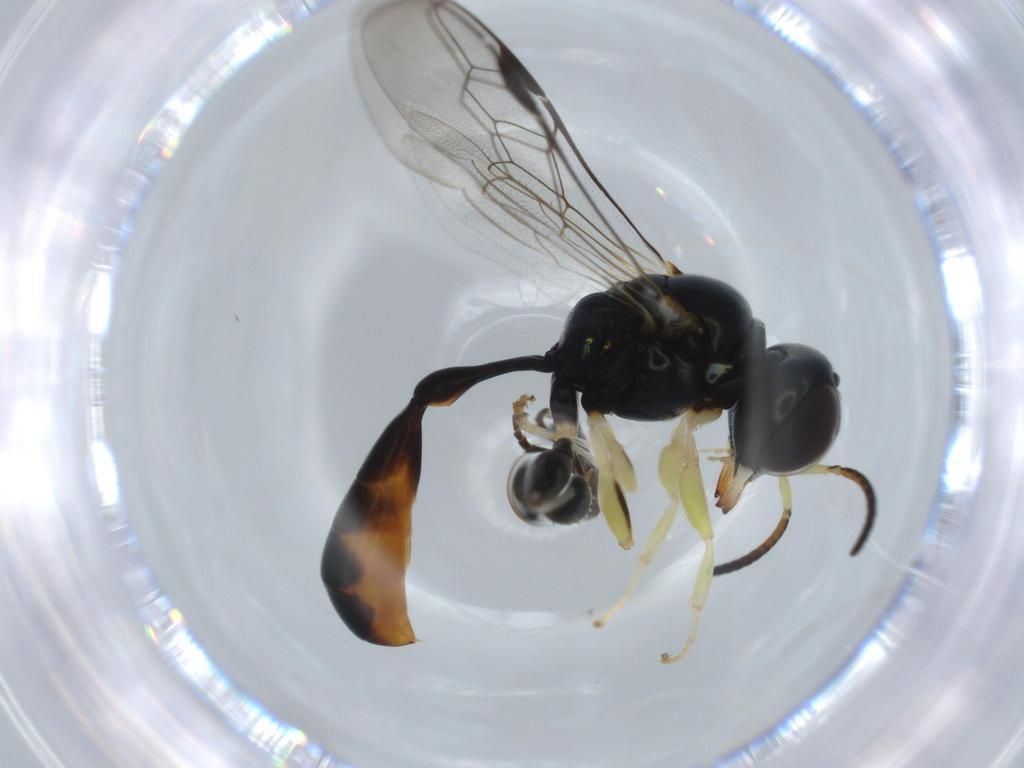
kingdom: Animalia
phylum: Arthropoda
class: Insecta
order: Hymenoptera
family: Crabronidae
